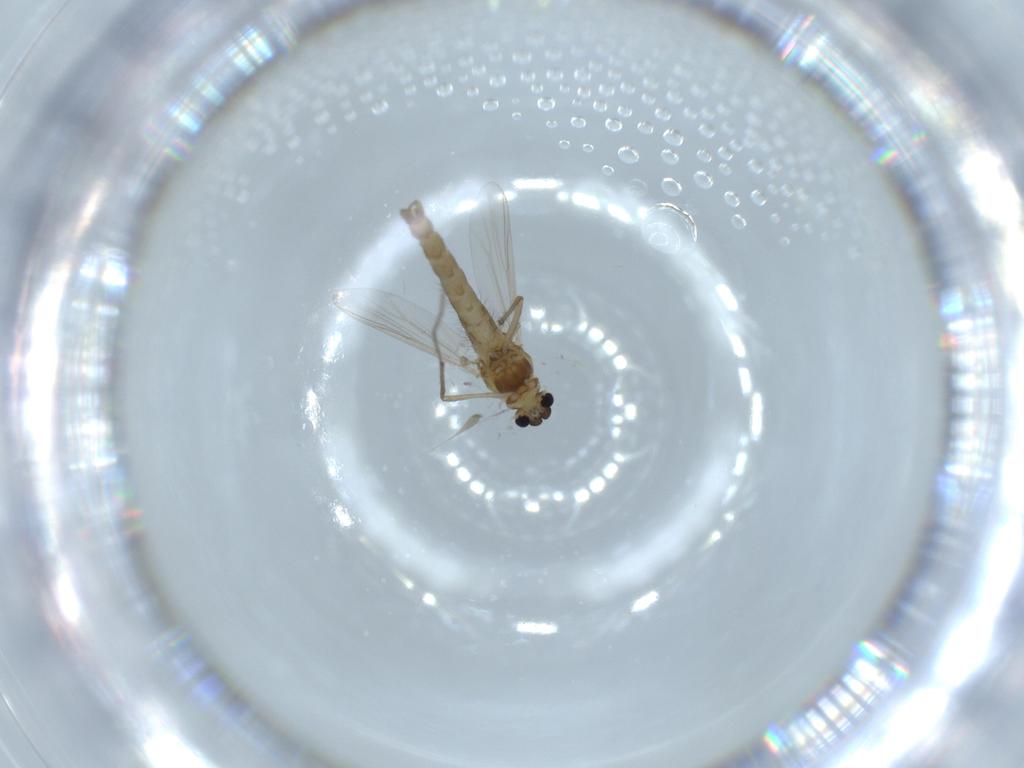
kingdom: Animalia
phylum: Arthropoda
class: Insecta
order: Diptera
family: Chironomidae
